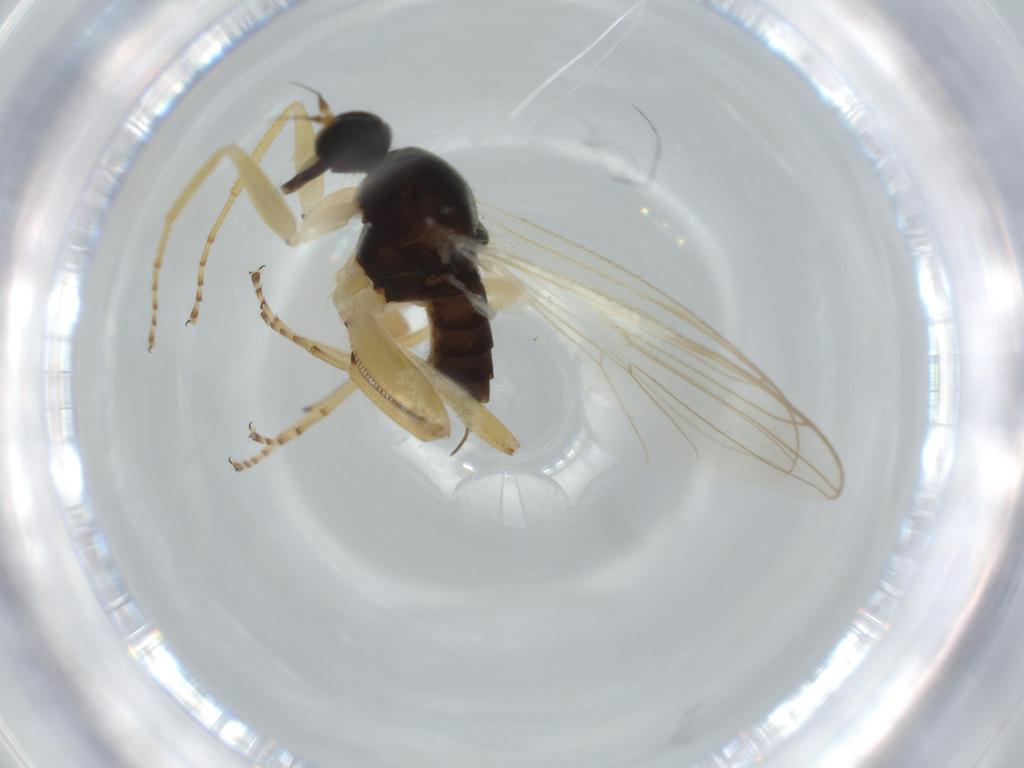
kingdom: Animalia
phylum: Arthropoda
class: Insecta
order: Diptera
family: Hybotidae
